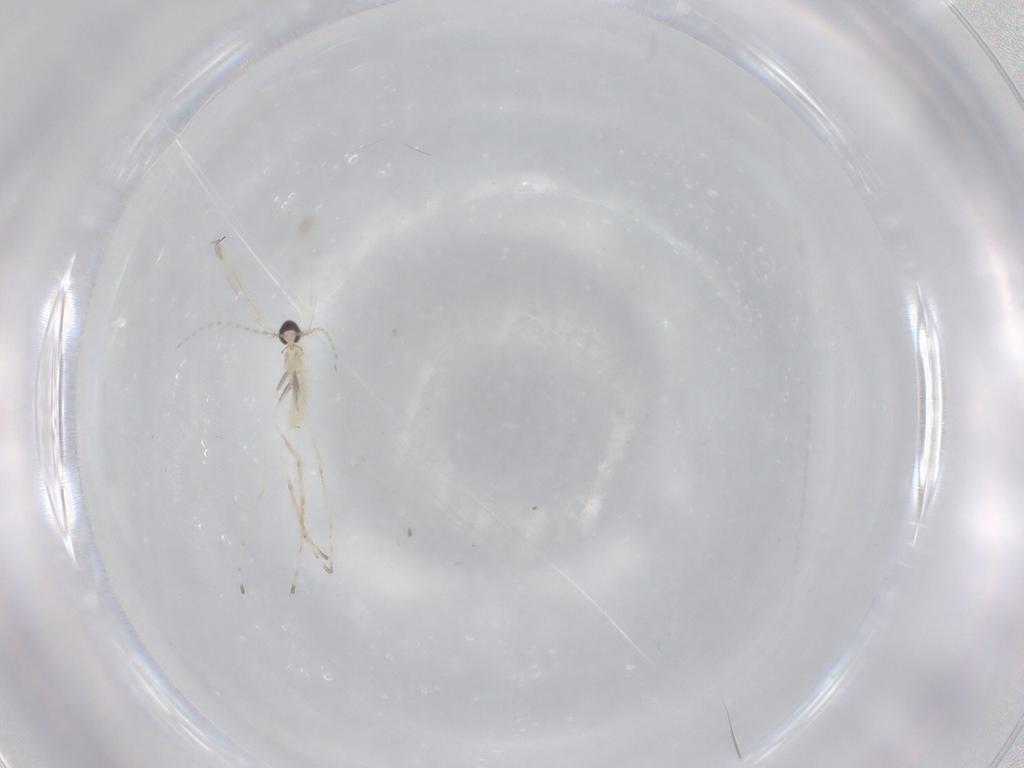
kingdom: Animalia
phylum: Arthropoda
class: Insecta
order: Diptera
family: Cecidomyiidae
